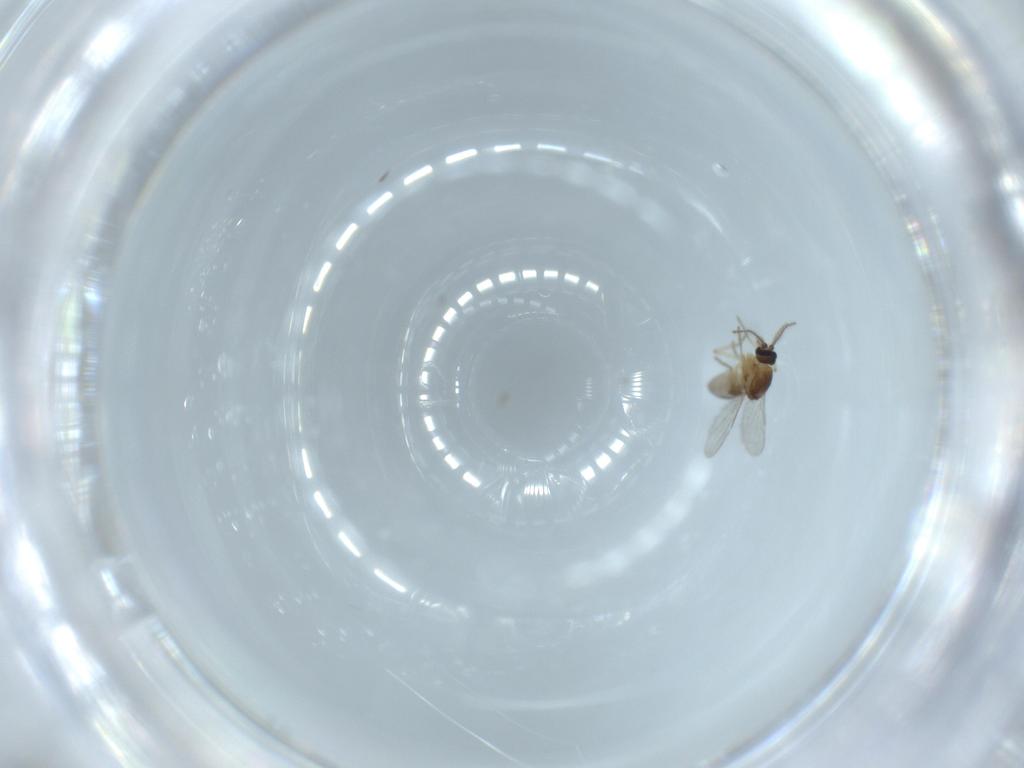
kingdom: Animalia
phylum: Arthropoda
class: Insecta
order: Diptera
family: Ceratopogonidae
